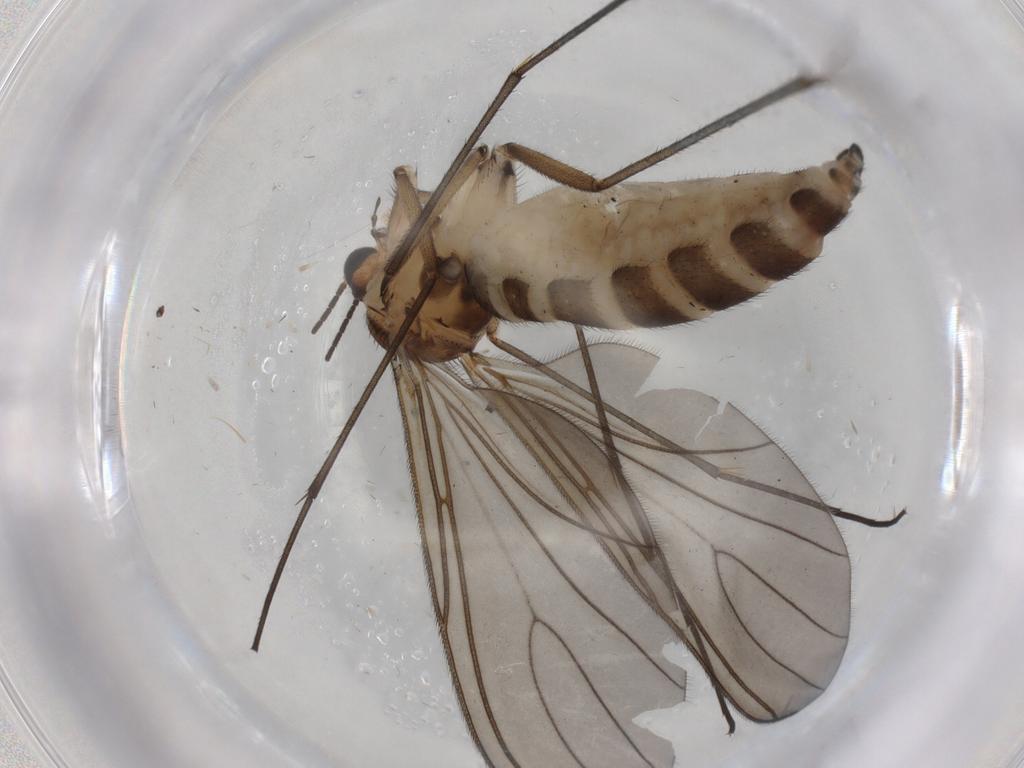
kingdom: Animalia
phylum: Arthropoda
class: Insecta
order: Diptera
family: Sciaridae
